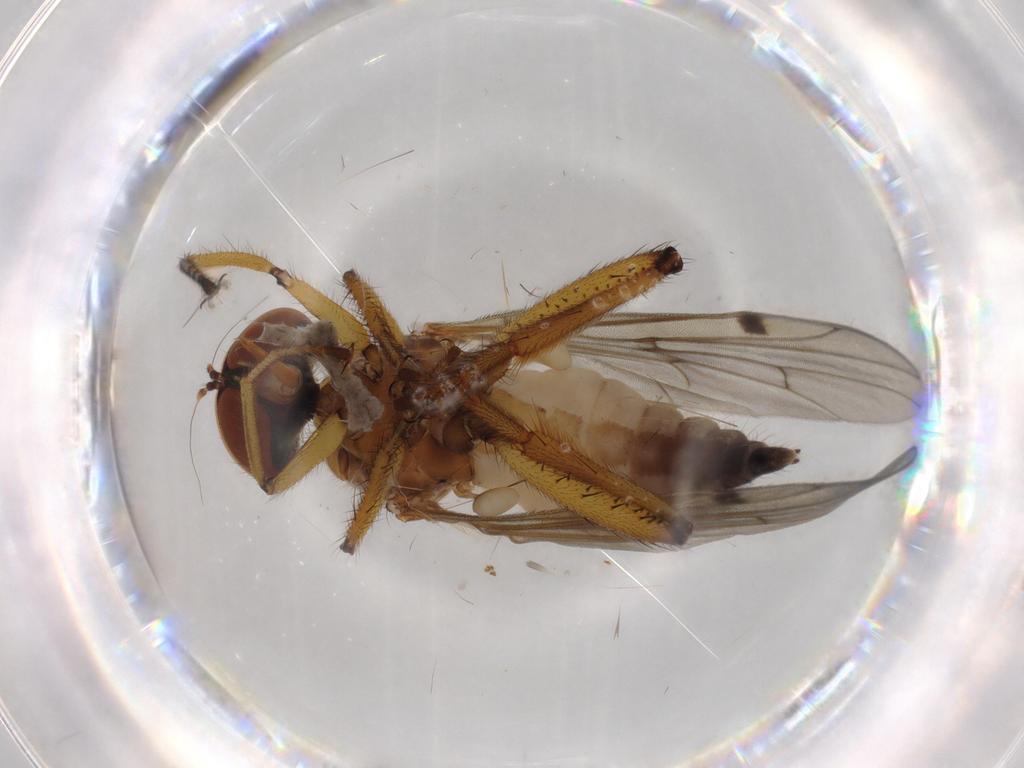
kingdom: Animalia
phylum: Arthropoda
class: Insecta
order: Diptera
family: Hybotidae
